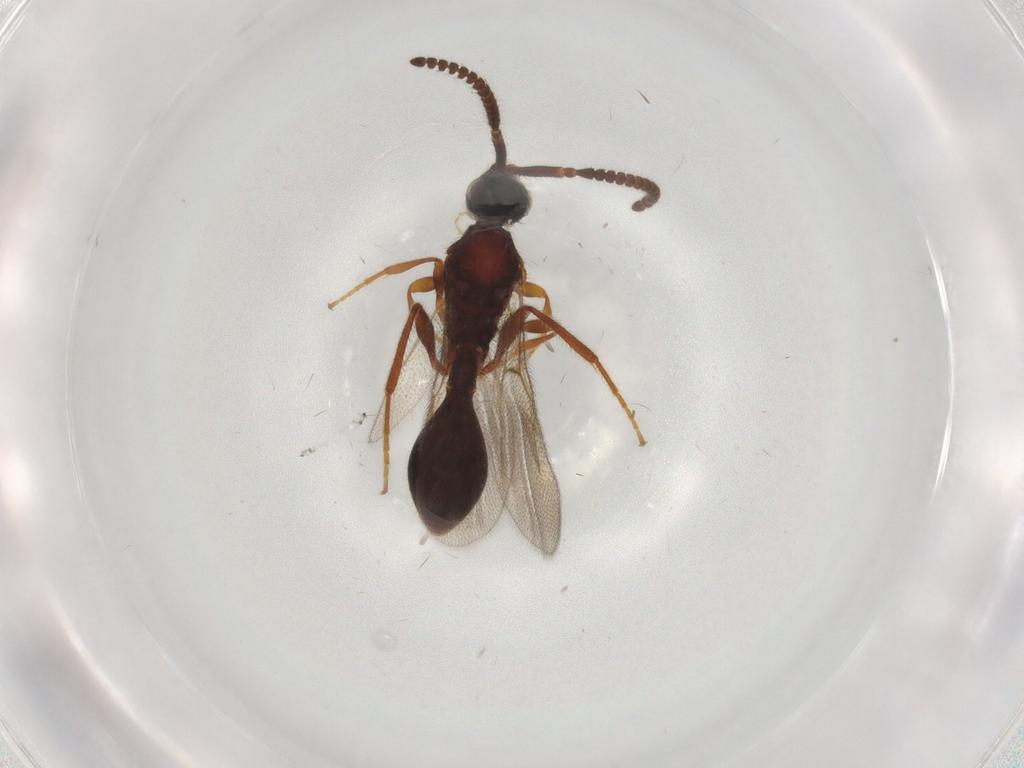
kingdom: Animalia
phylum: Arthropoda
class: Insecta
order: Hymenoptera
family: Diapriidae
